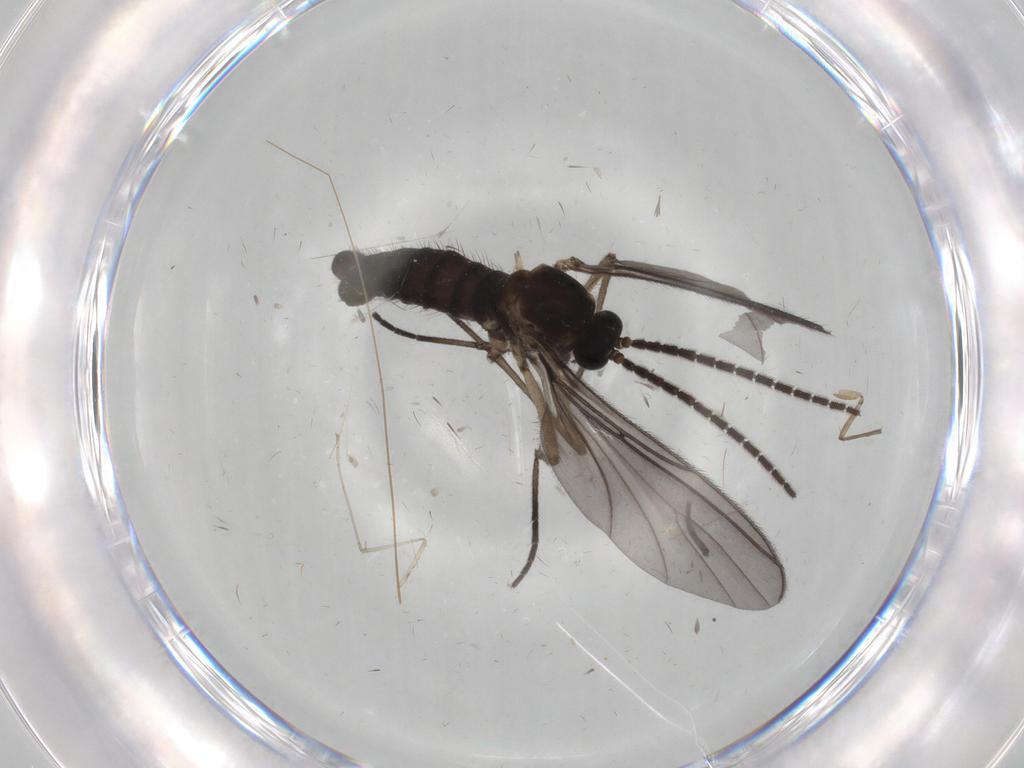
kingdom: Animalia
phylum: Arthropoda
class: Insecta
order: Diptera
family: Sciaridae
